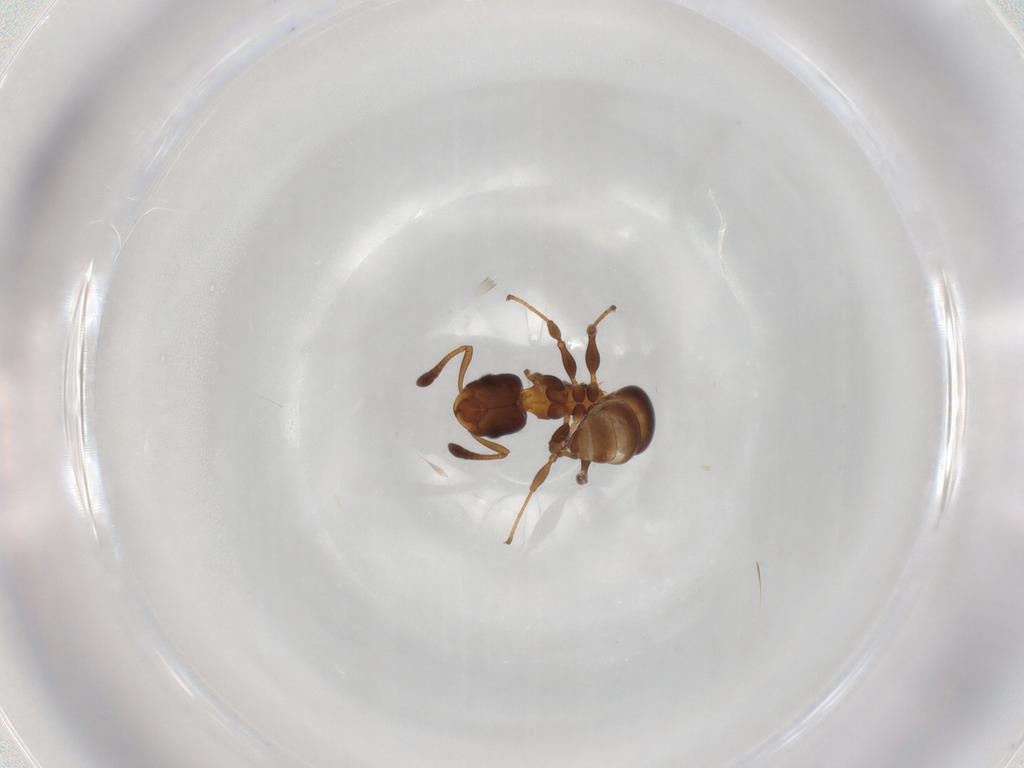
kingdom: Animalia
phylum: Arthropoda
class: Insecta
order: Hymenoptera
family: Formicidae
